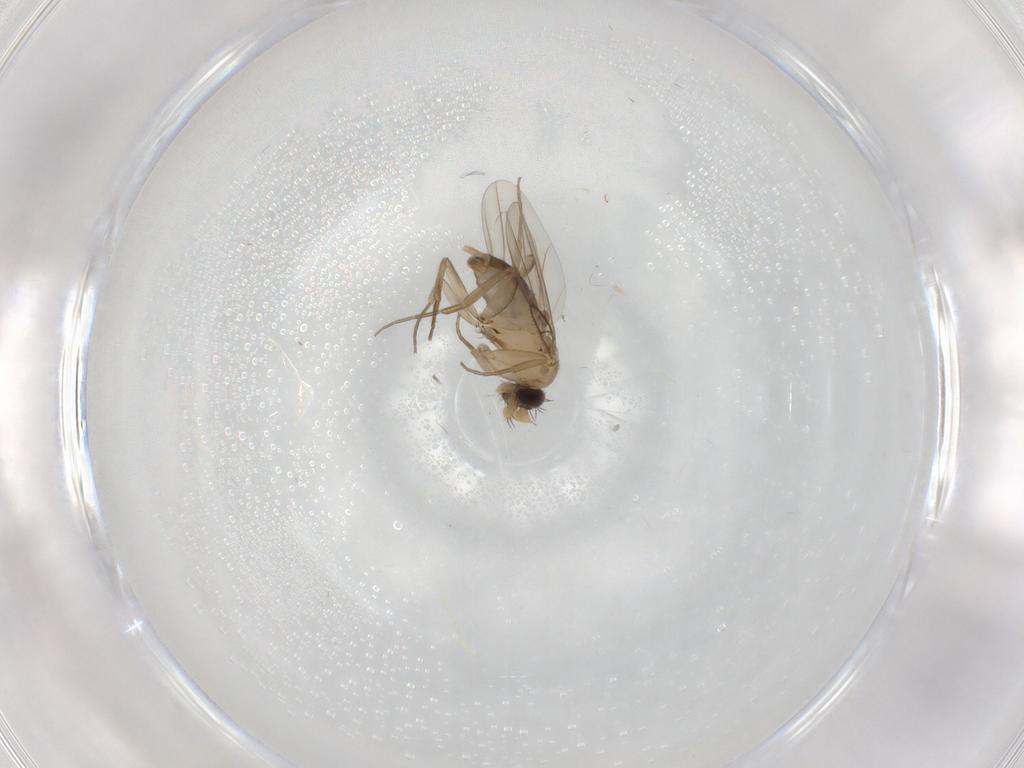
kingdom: Animalia
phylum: Arthropoda
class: Insecta
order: Diptera
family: Phoridae
